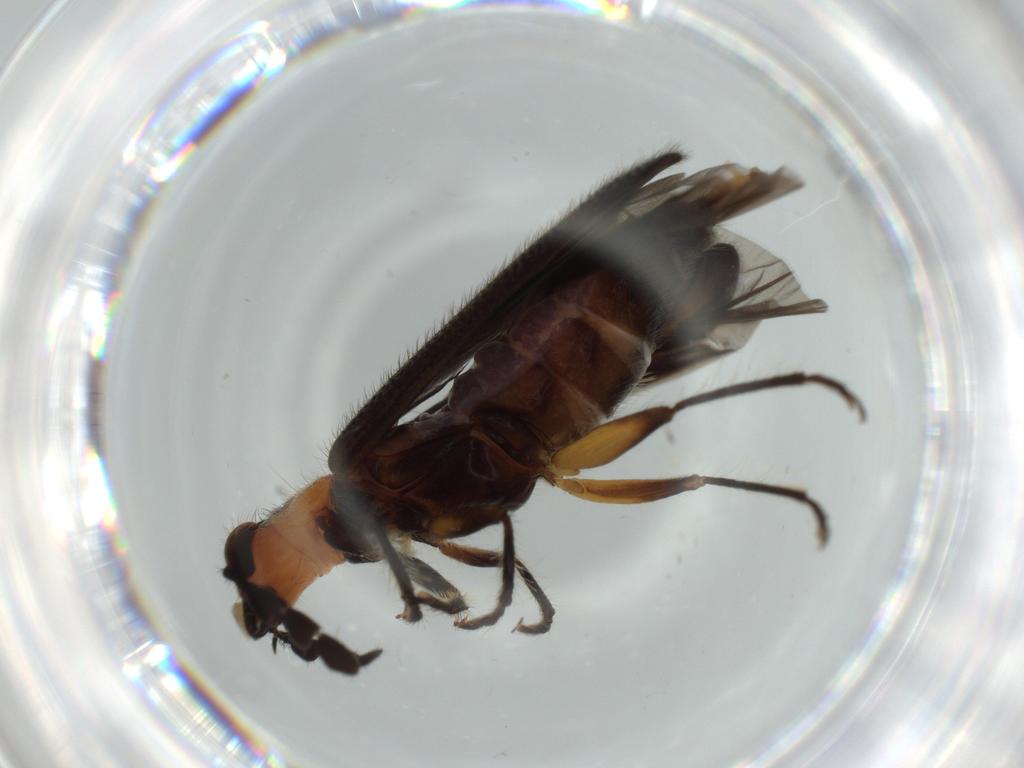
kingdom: Animalia
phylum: Arthropoda
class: Insecta
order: Coleoptera
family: Cleridae
